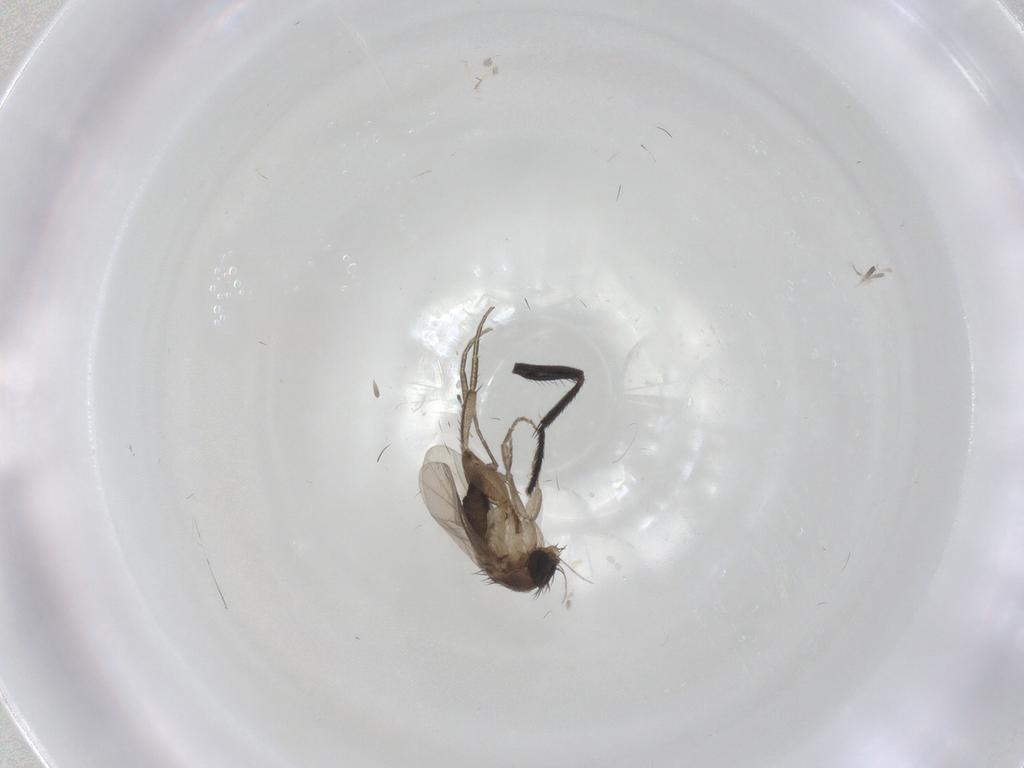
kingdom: Animalia
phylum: Arthropoda
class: Insecta
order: Diptera
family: Phoridae
